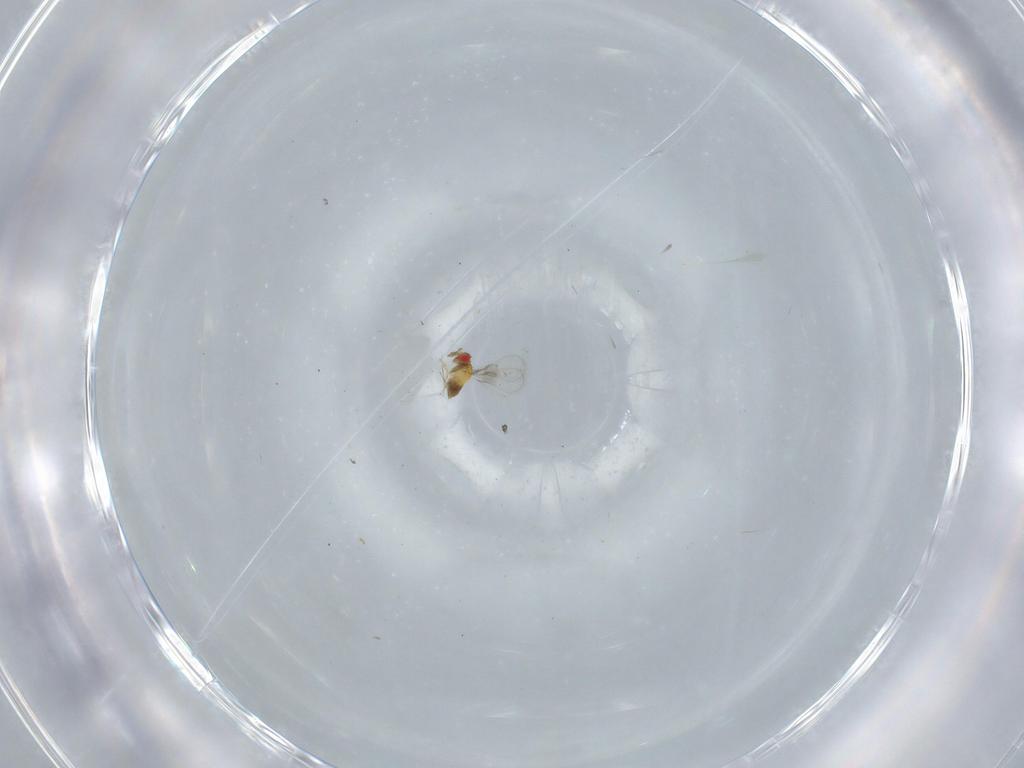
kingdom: Animalia
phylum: Arthropoda
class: Insecta
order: Hymenoptera
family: Trichogrammatidae
